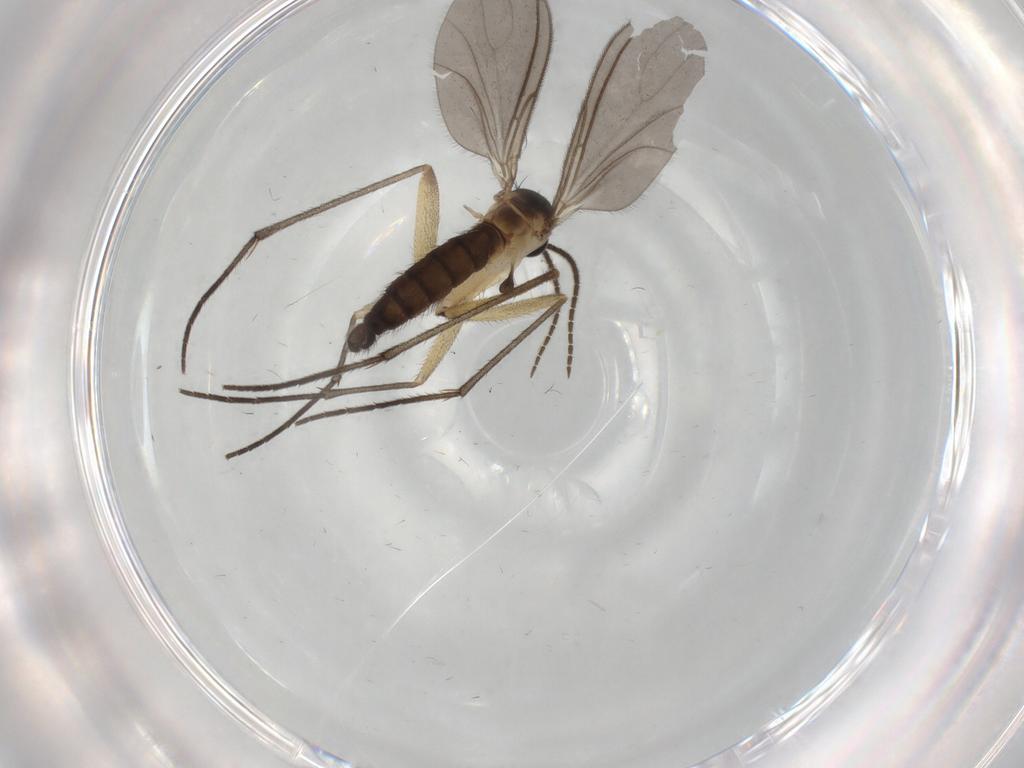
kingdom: Animalia
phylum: Arthropoda
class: Insecta
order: Diptera
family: Sciaridae
